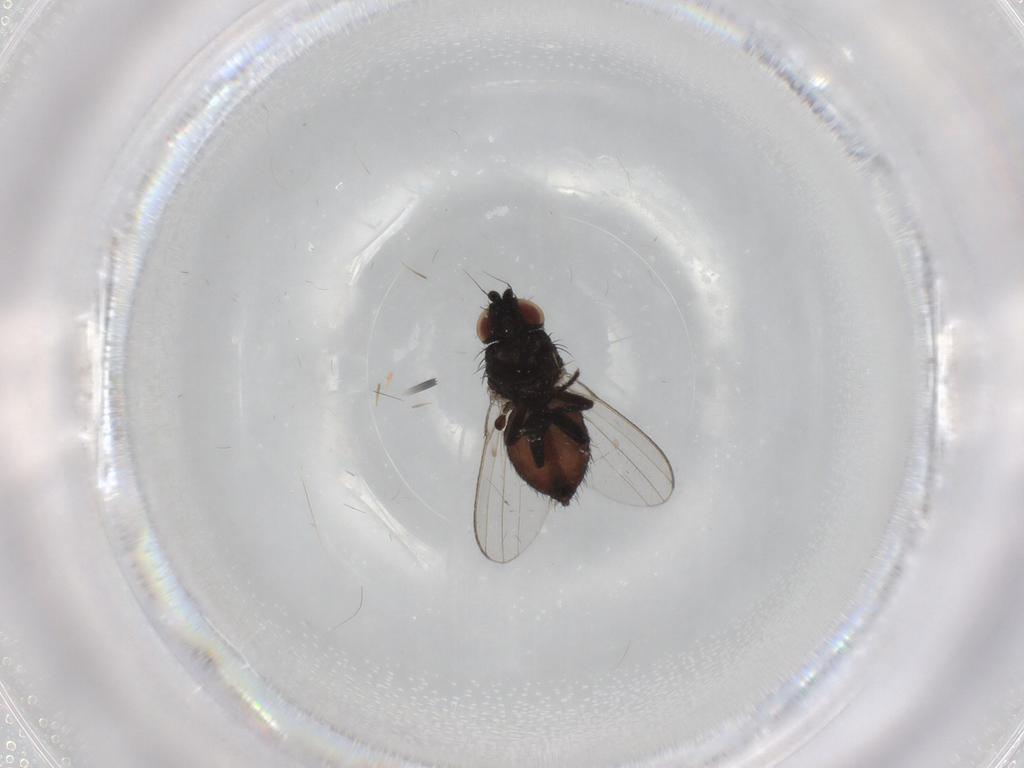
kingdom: Animalia
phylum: Arthropoda
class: Insecta
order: Diptera
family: Milichiidae
